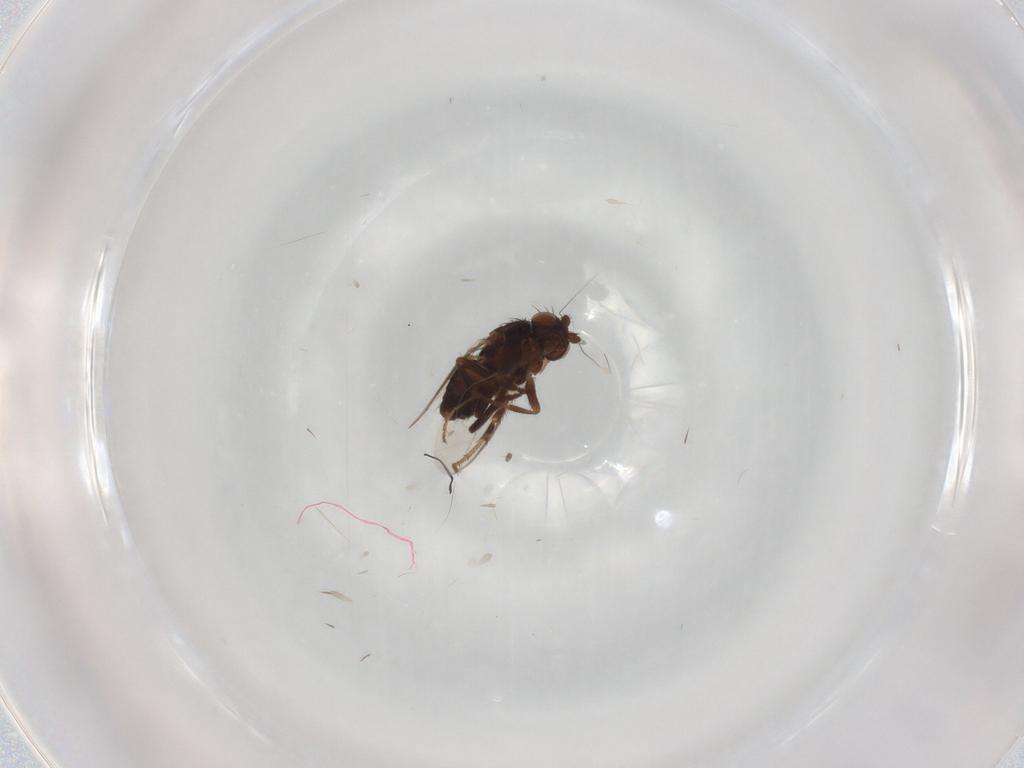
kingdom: Animalia
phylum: Arthropoda
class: Insecta
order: Diptera
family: Sphaeroceridae
